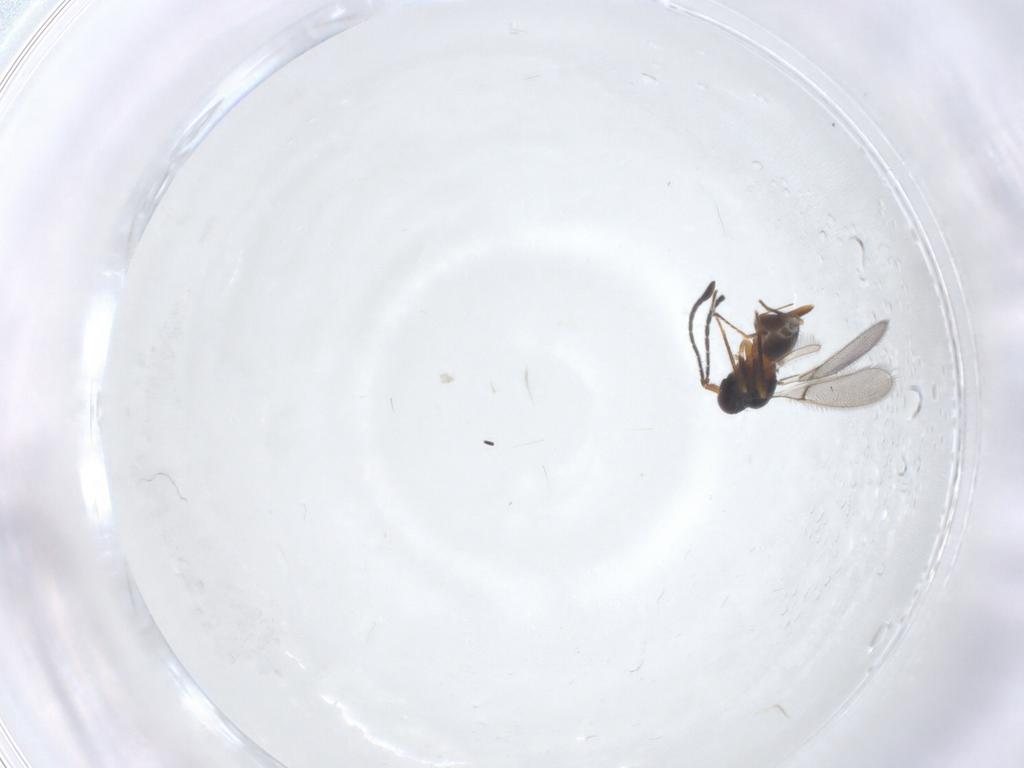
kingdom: Animalia
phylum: Arthropoda
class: Insecta
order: Hymenoptera
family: Mymaridae
